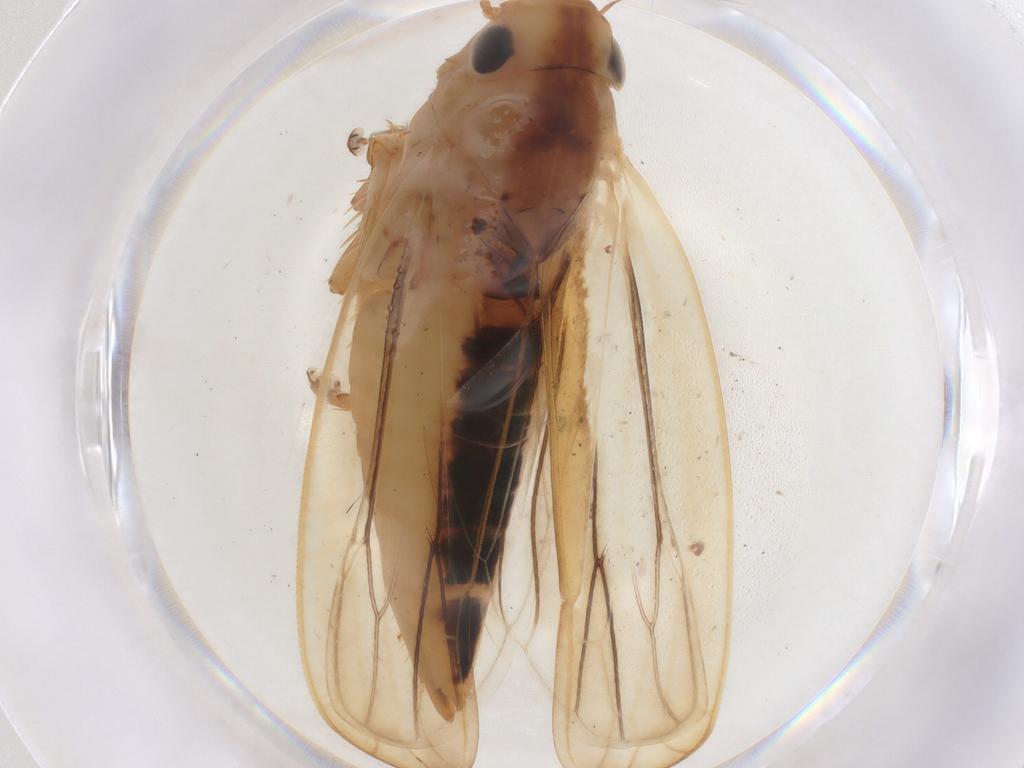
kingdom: Animalia
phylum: Arthropoda
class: Insecta
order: Hemiptera
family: Cicadellidae
